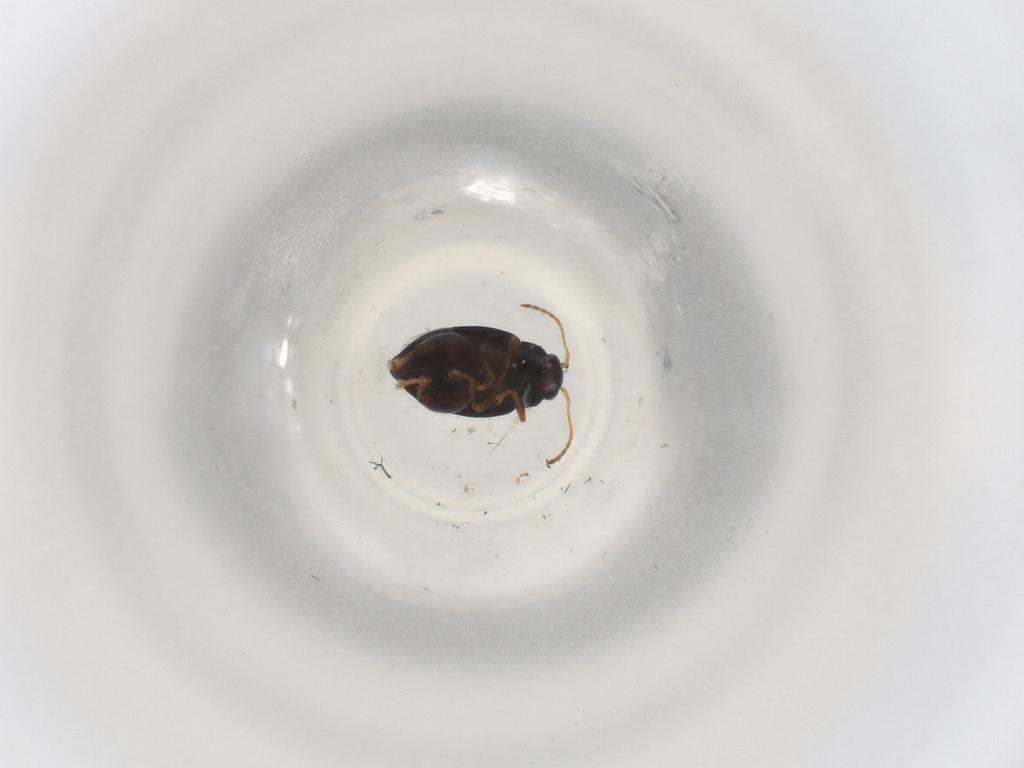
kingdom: Animalia
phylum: Arthropoda
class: Insecta
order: Coleoptera
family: Chrysomelidae
